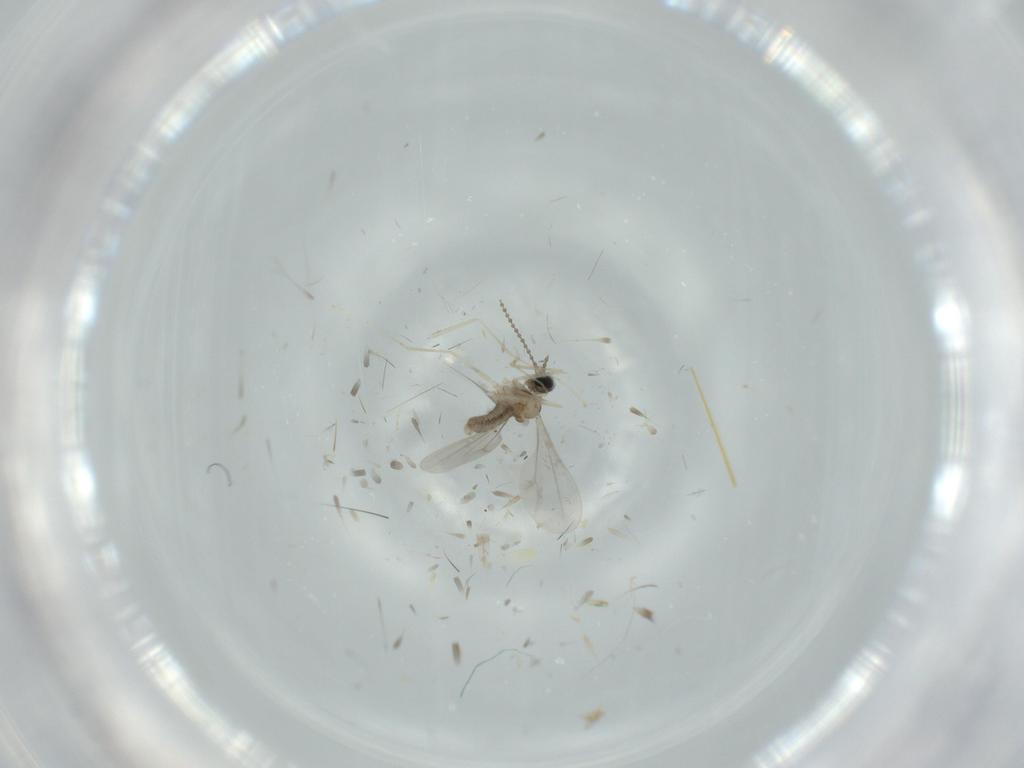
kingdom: Animalia
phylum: Arthropoda
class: Insecta
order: Diptera
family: Cecidomyiidae
